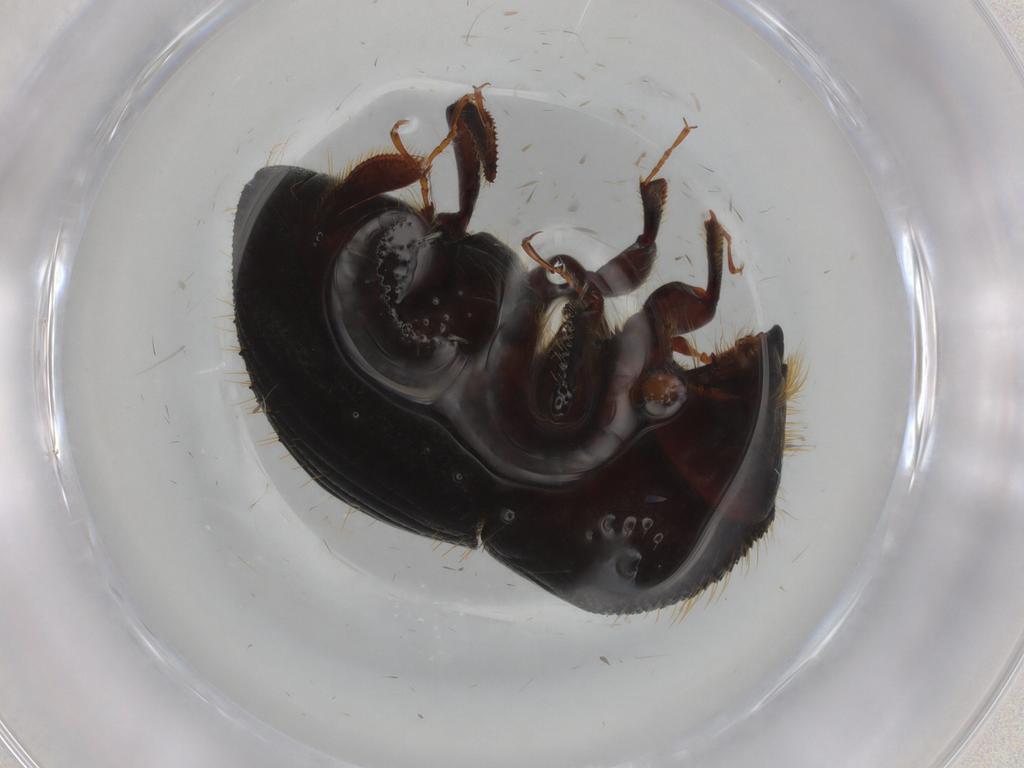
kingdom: Animalia
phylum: Arthropoda
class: Insecta
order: Coleoptera
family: Curculionidae
